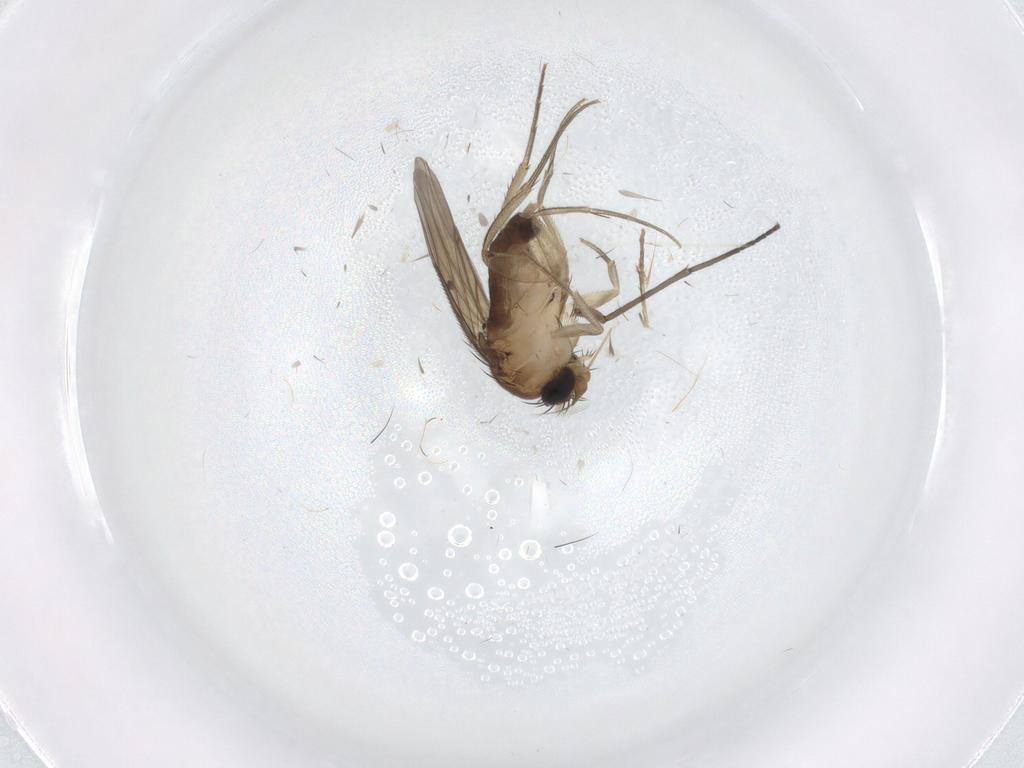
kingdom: Animalia
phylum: Arthropoda
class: Insecta
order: Diptera
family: Sciaridae
